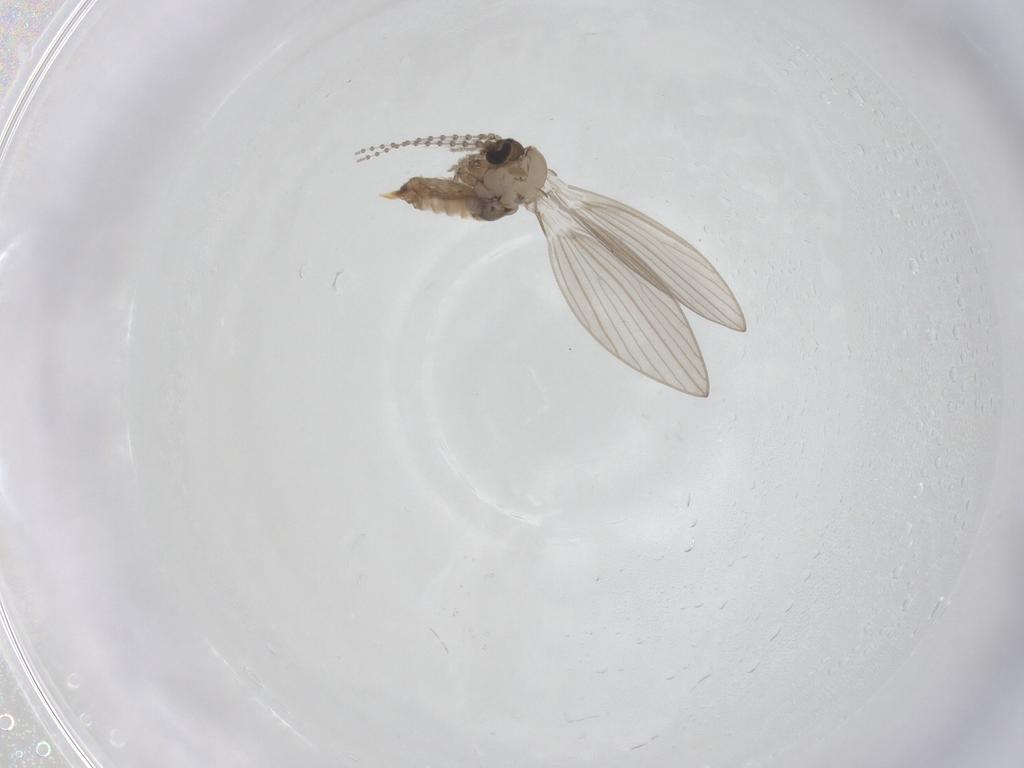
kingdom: Animalia
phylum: Arthropoda
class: Insecta
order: Diptera
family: Psychodidae
